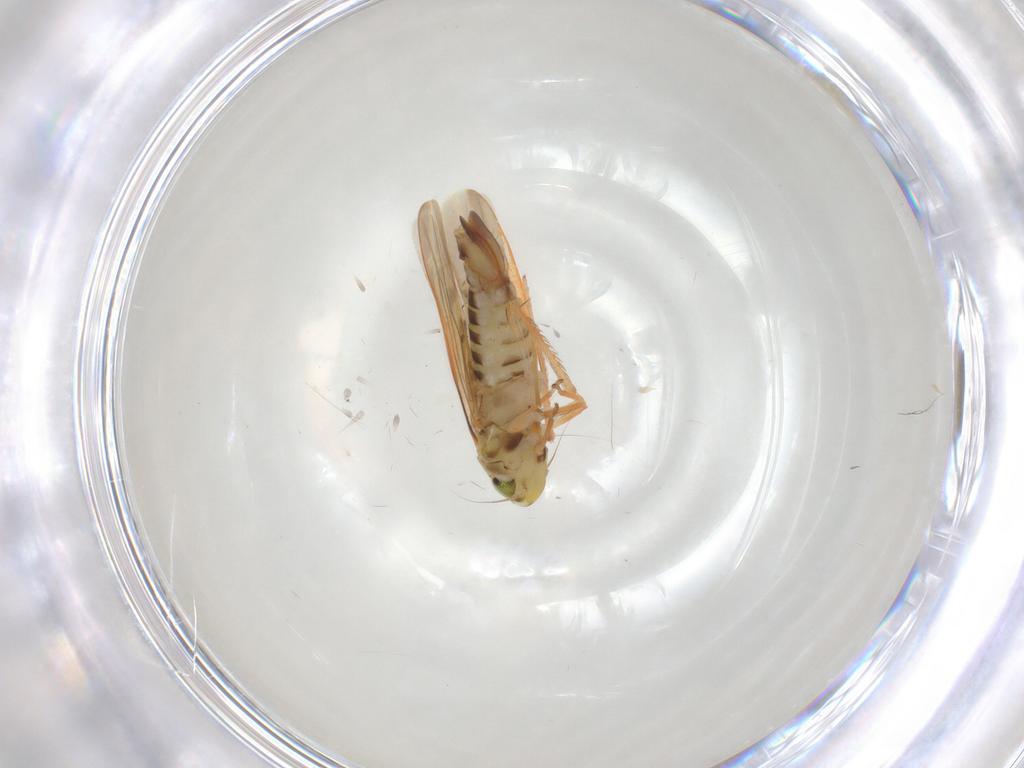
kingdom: Animalia
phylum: Arthropoda
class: Insecta
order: Hemiptera
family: Cicadellidae
